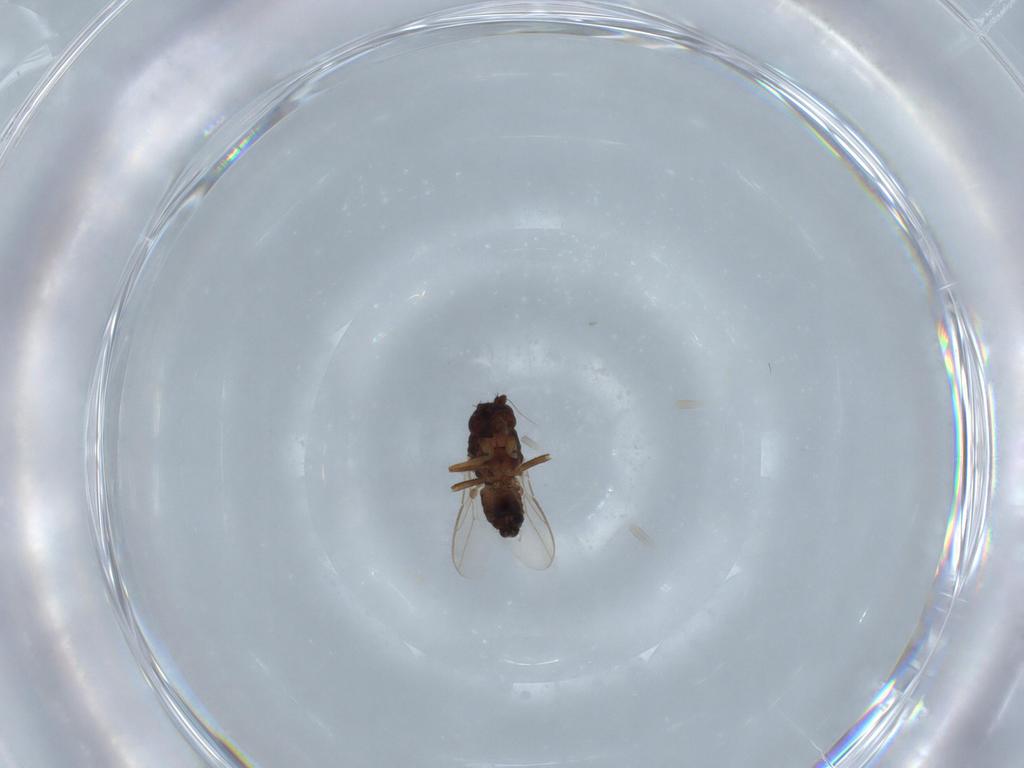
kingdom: Animalia
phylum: Arthropoda
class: Insecta
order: Diptera
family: Sphaeroceridae
